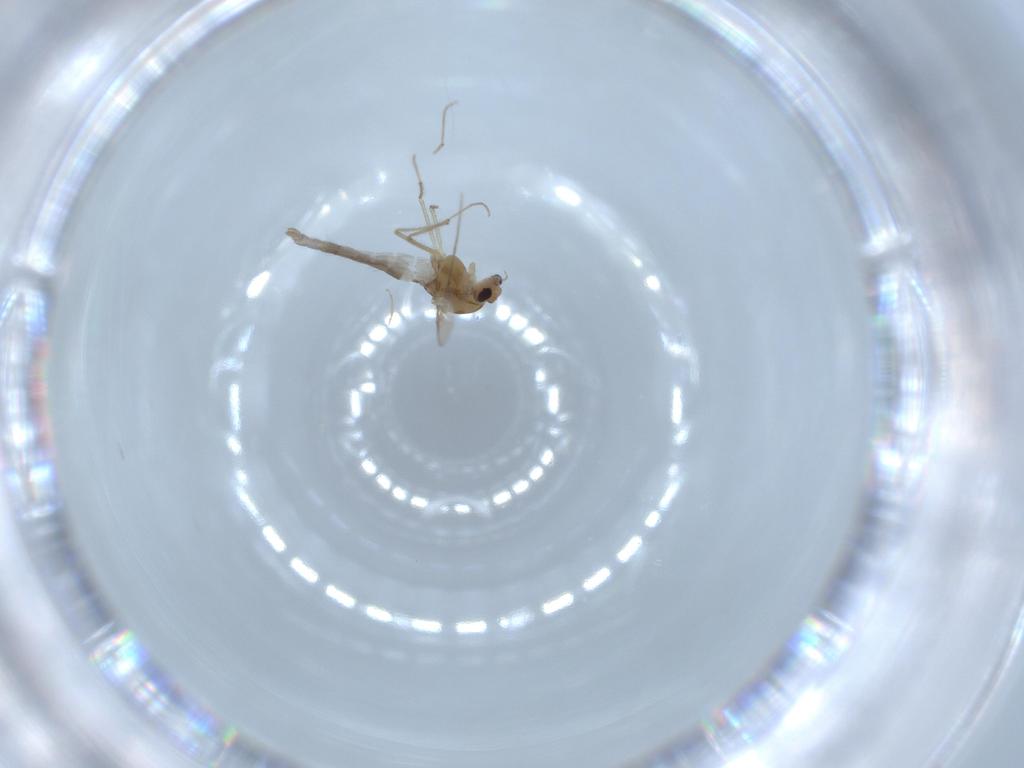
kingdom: Animalia
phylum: Arthropoda
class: Insecta
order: Diptera
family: Chironomidae
